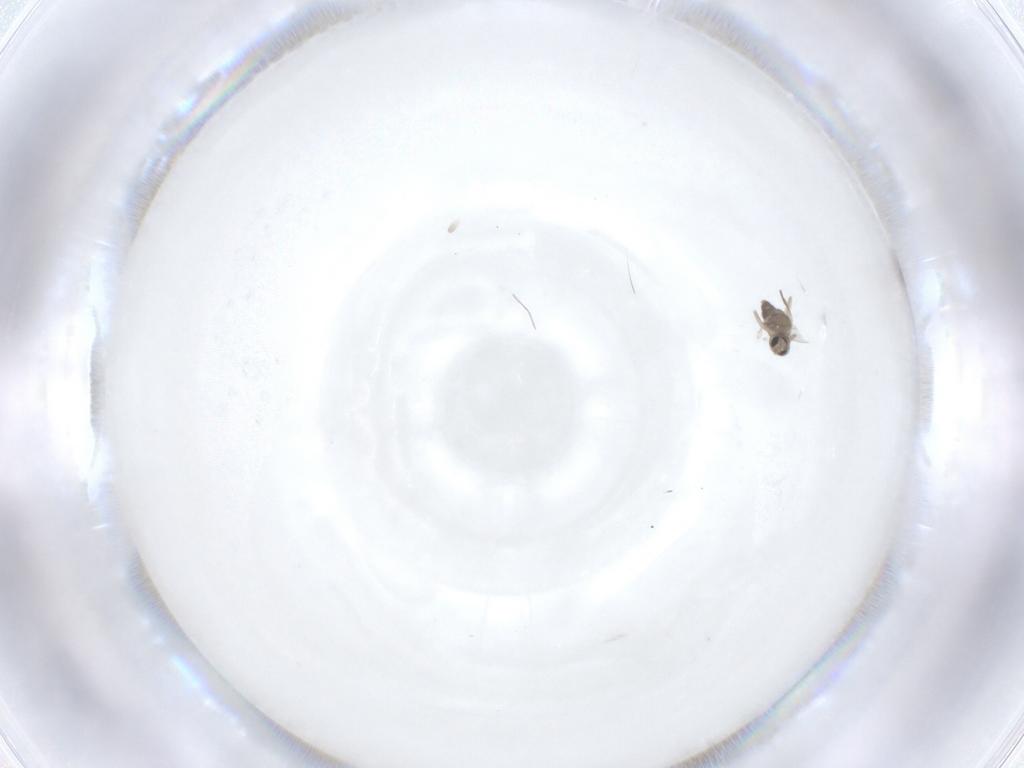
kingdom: Animalia
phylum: Arthropoda
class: Insecta
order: Diptera
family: Cecidomyiidae
